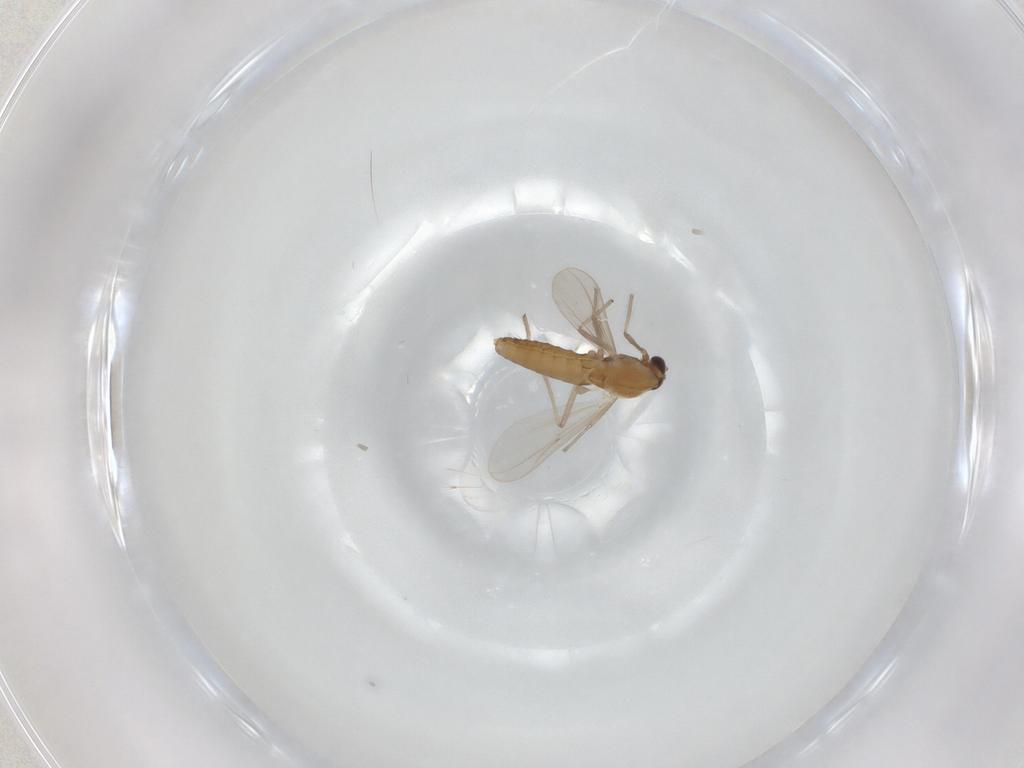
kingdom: Animalia
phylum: Arthropoda
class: Insecta
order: Diptera
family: Chironomidae
